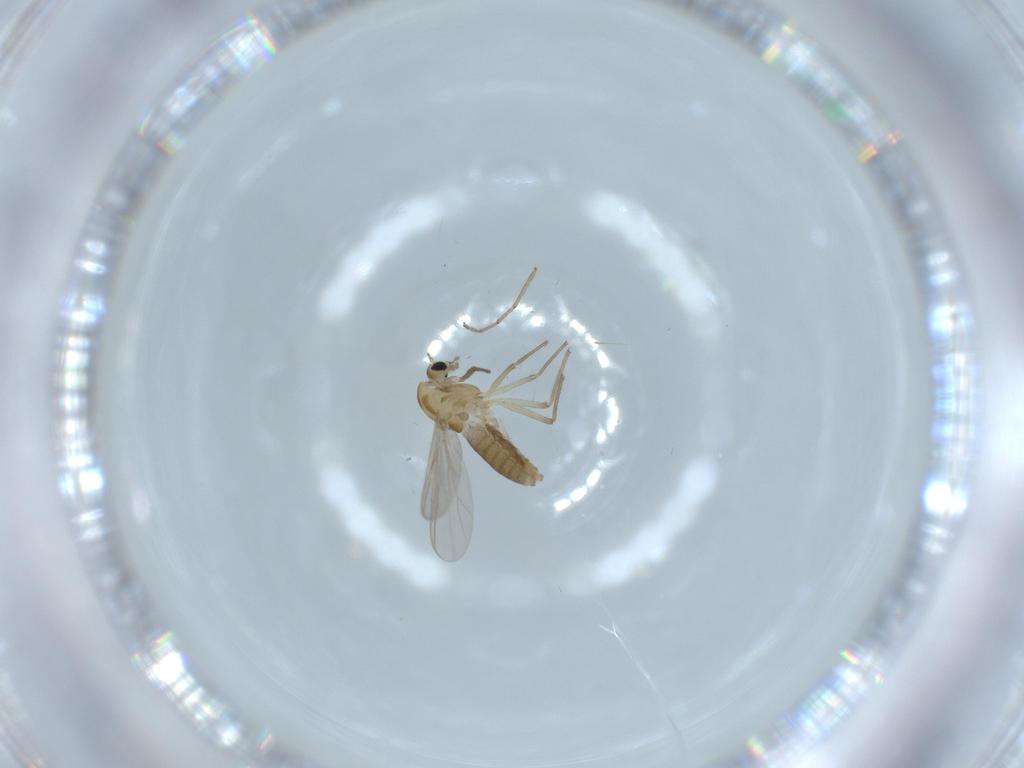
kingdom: Animalia
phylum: Arthropoda
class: Insecta
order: Diptera
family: Chironomidae
